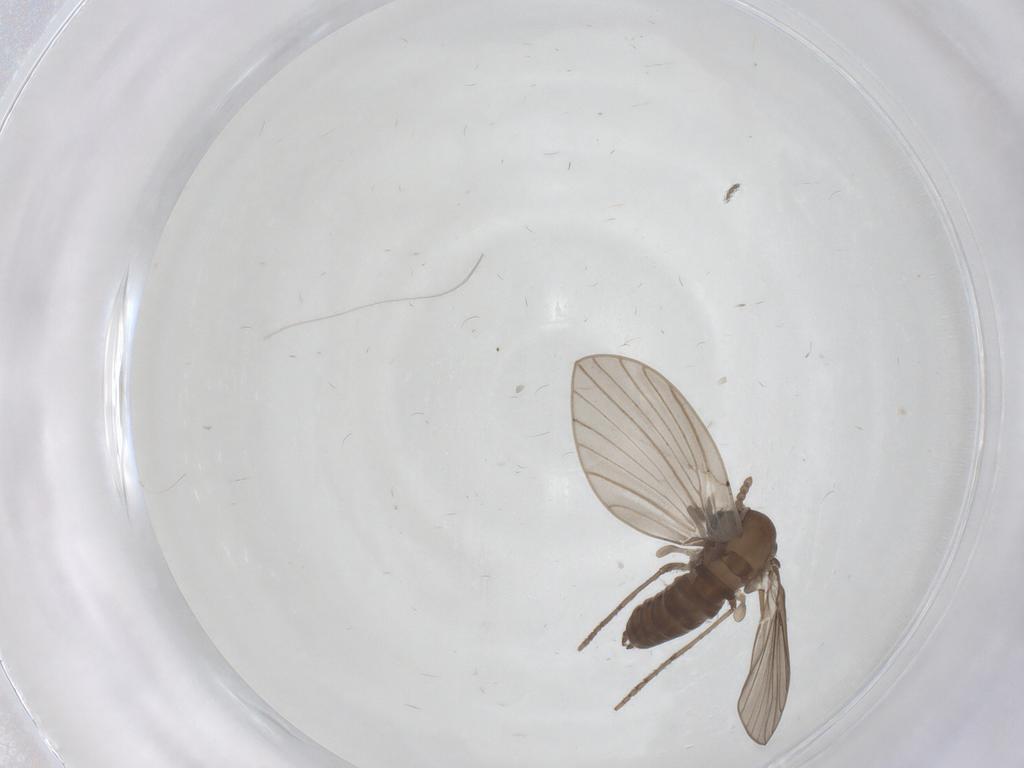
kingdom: Animalia
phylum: Arthropoda
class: Insecta
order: Diptera
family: Psychodidae
